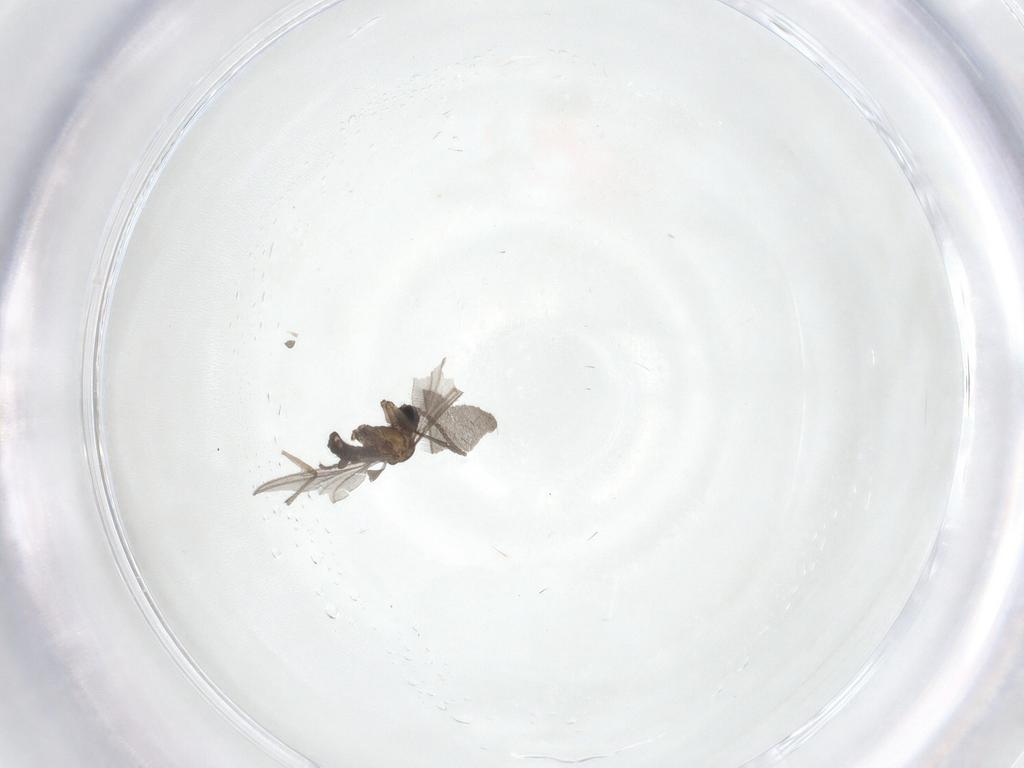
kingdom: Animalia
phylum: Arthropoda
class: Insecta
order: Diptera
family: Sciaridae
